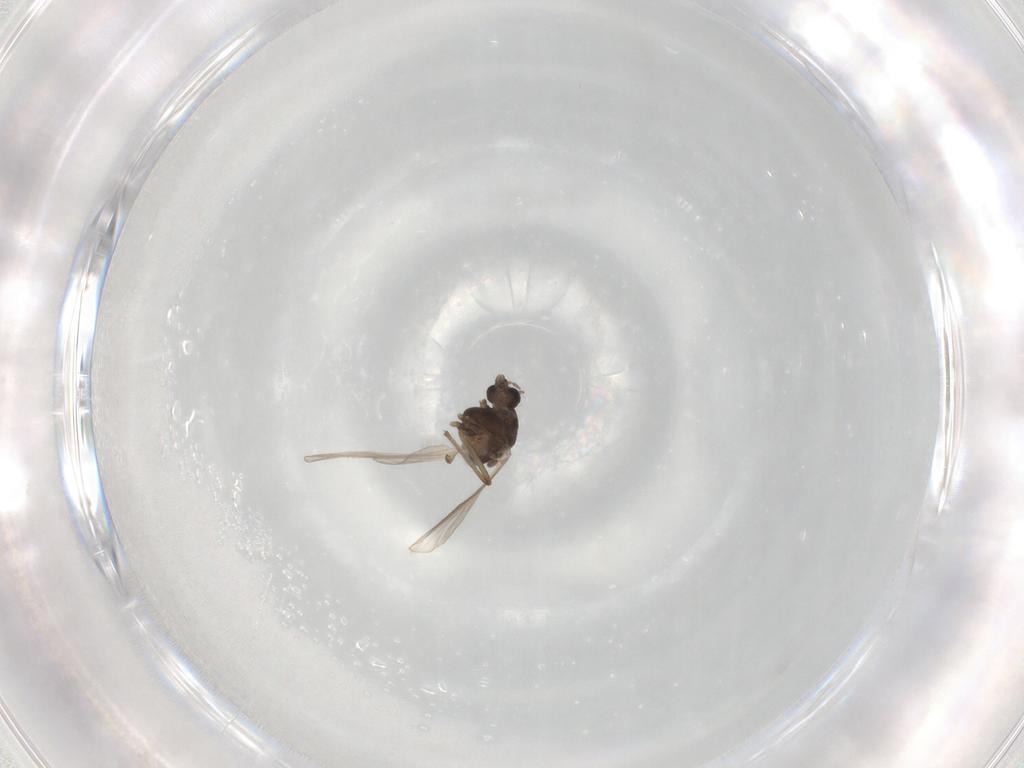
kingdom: Animalia
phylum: Arthropoda
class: Insecta
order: Diptera
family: Chironomidae
